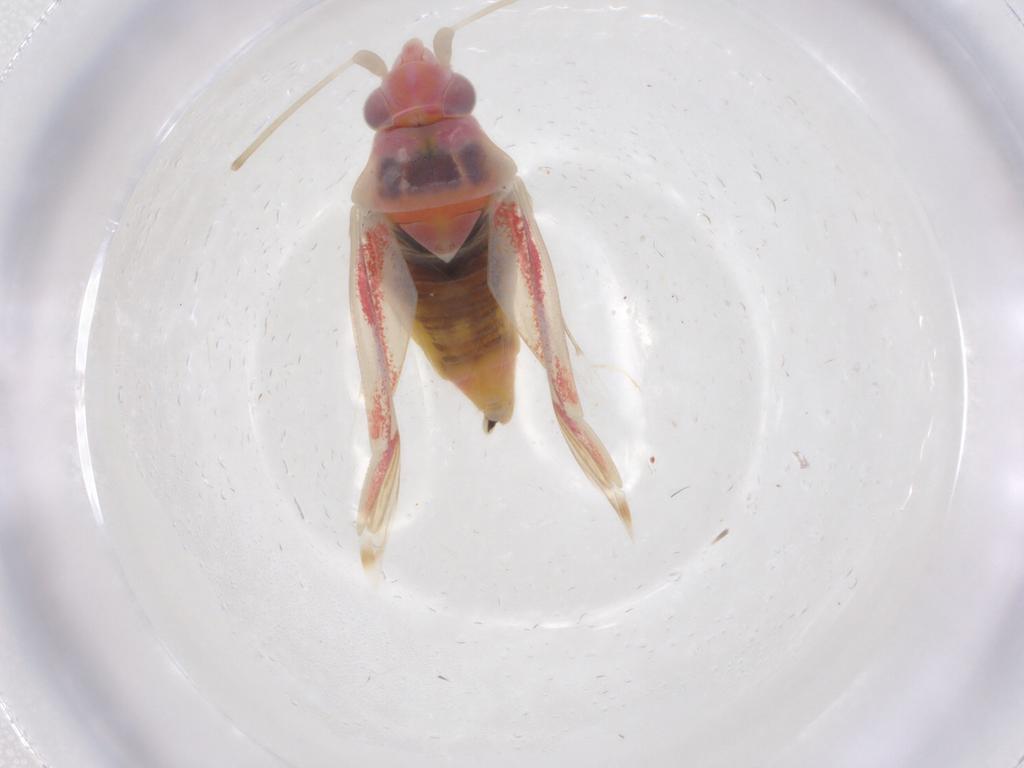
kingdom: Animalia
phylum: Arthropoda
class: Insecta
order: Hemiptera
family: Miridae
